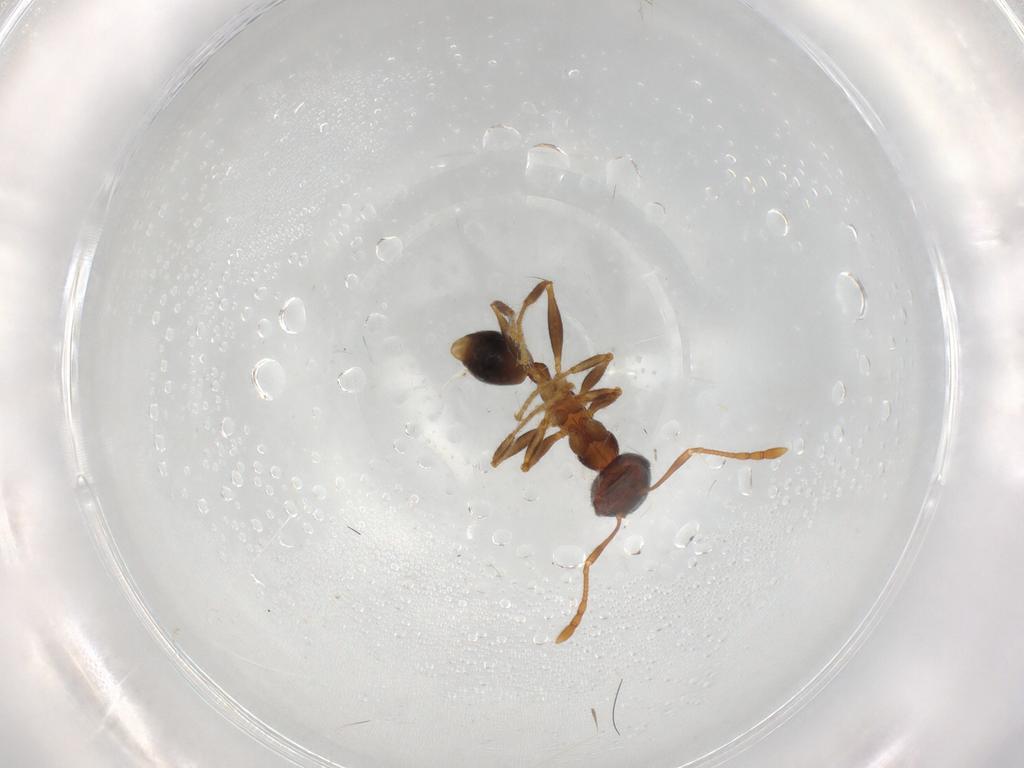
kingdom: Animalia
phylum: Arthropoda
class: Insecta
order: Hymenoptera
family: Formicidae
